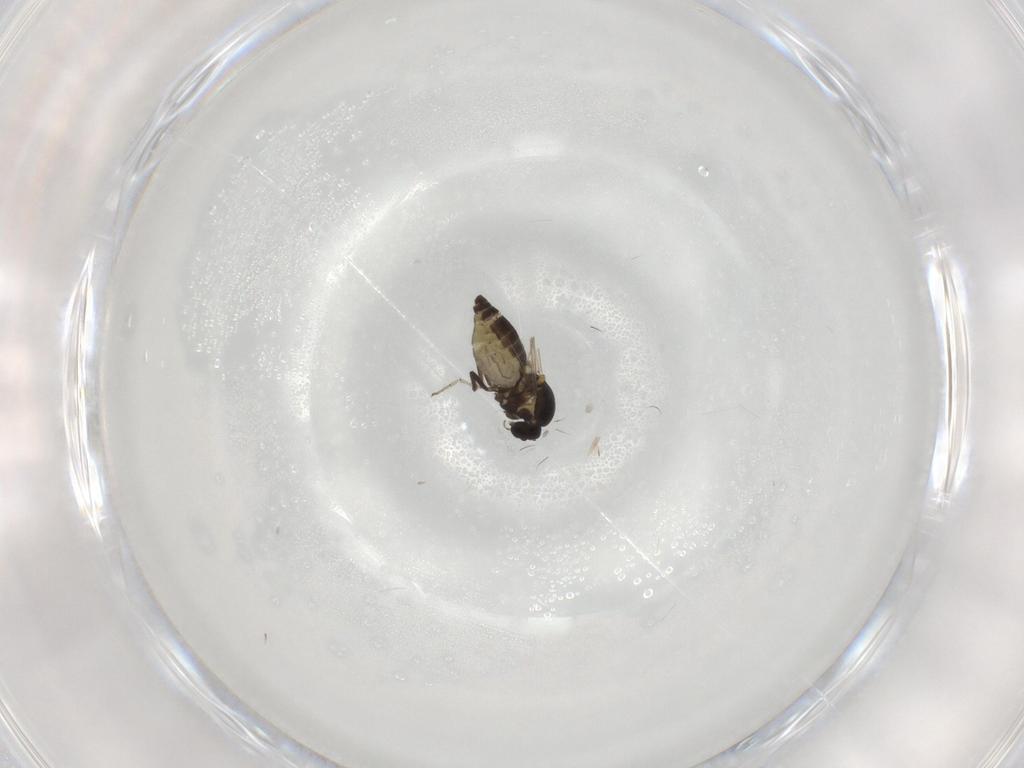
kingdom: Animalia
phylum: Arthropoda
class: Insecta
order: Diptera
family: Ceratopogonidae
